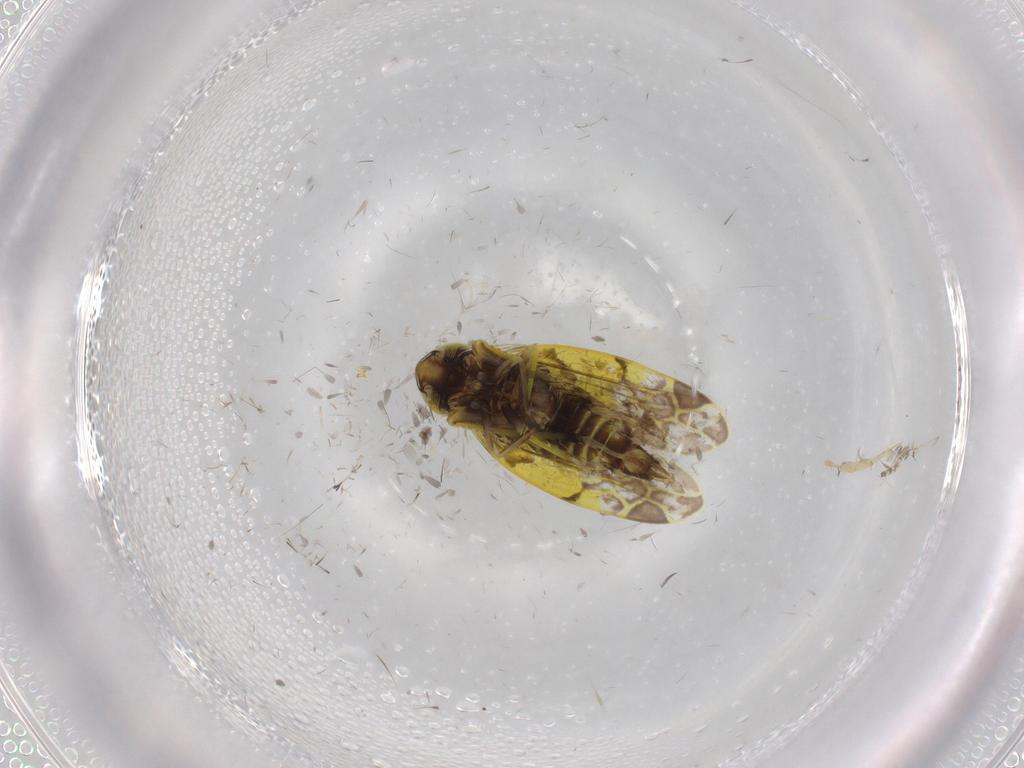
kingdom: Animalia
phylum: Arthropoda
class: Insecta
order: Hemiptera
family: Cicadellidae
